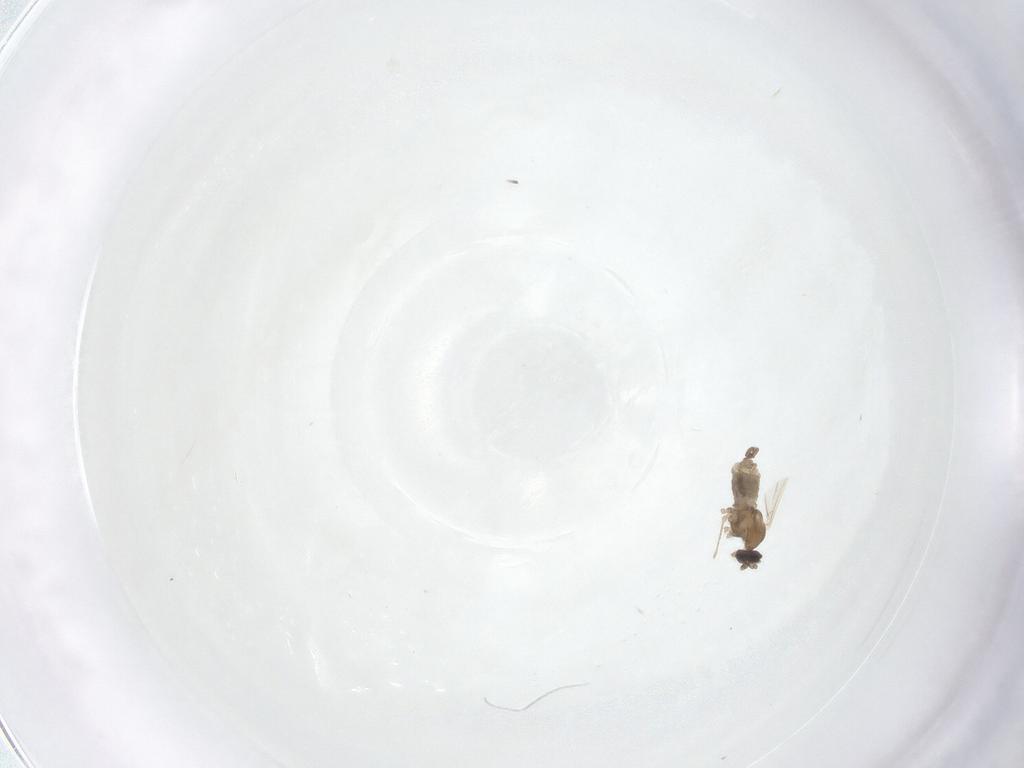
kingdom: Animalia
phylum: Arthropoda
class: Insecta
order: Diptera
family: Cecidomyiidae
